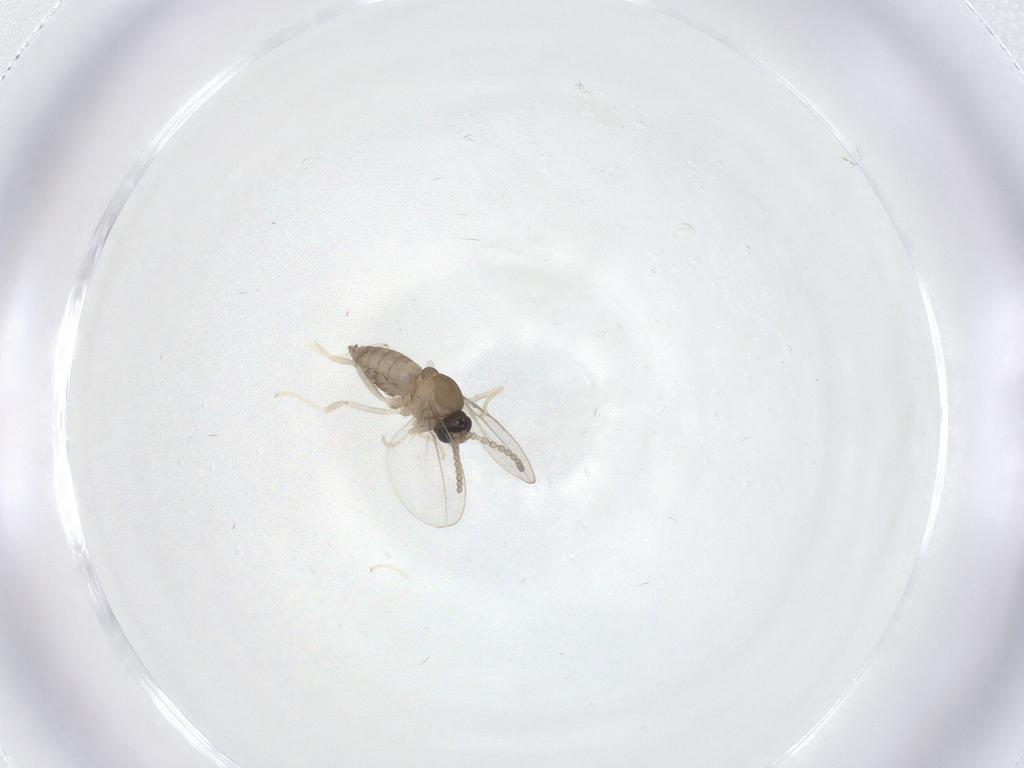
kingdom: Animalia
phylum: Arthropoda
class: Insecta
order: Diptera
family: Cecidomyiidae
